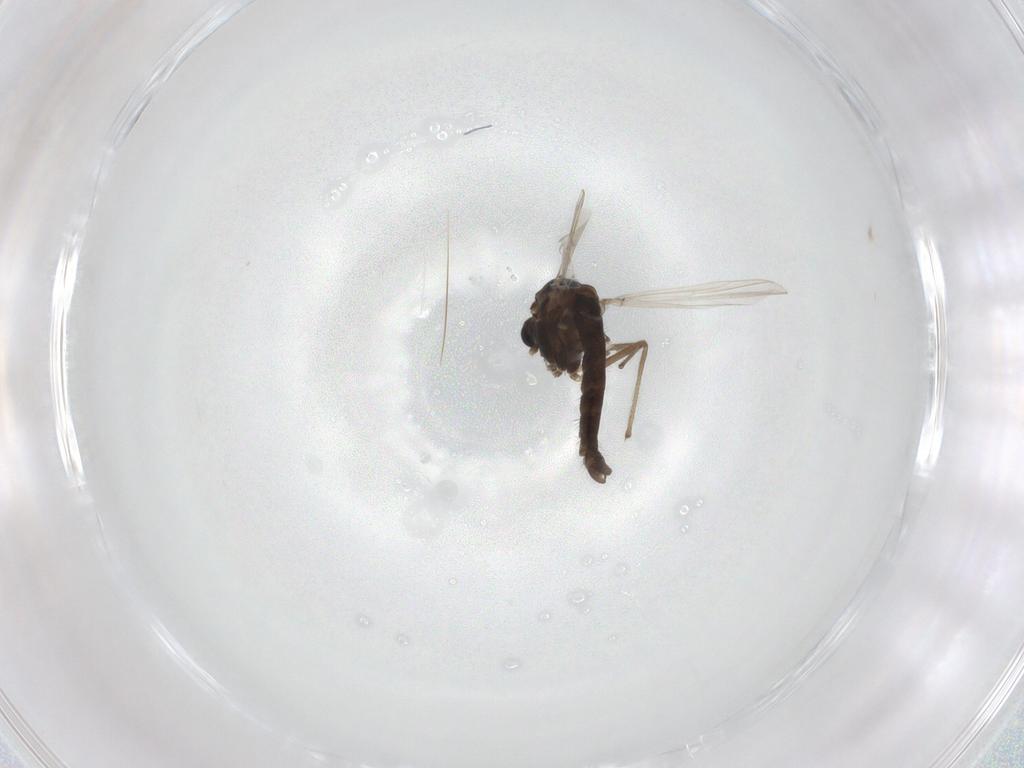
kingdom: Animalia
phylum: Arthropoda
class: Insecta
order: Diptera
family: Chironomidae
